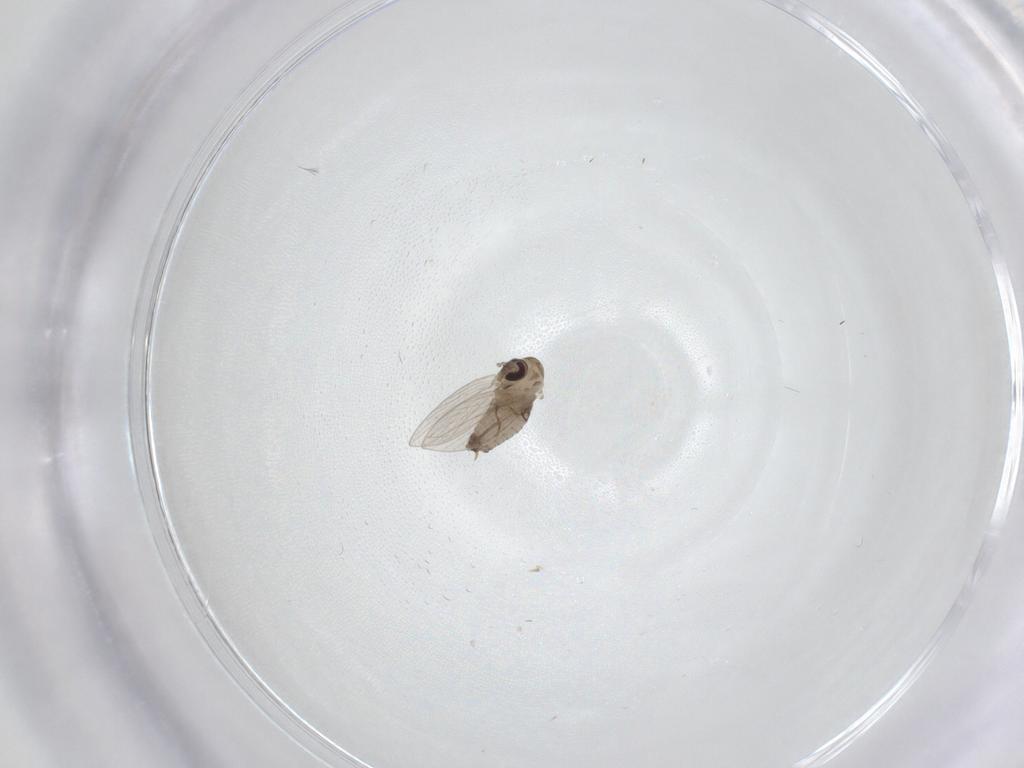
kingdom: Animalia
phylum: Arthropoda
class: Insecta
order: Diptera
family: Psychodidae
